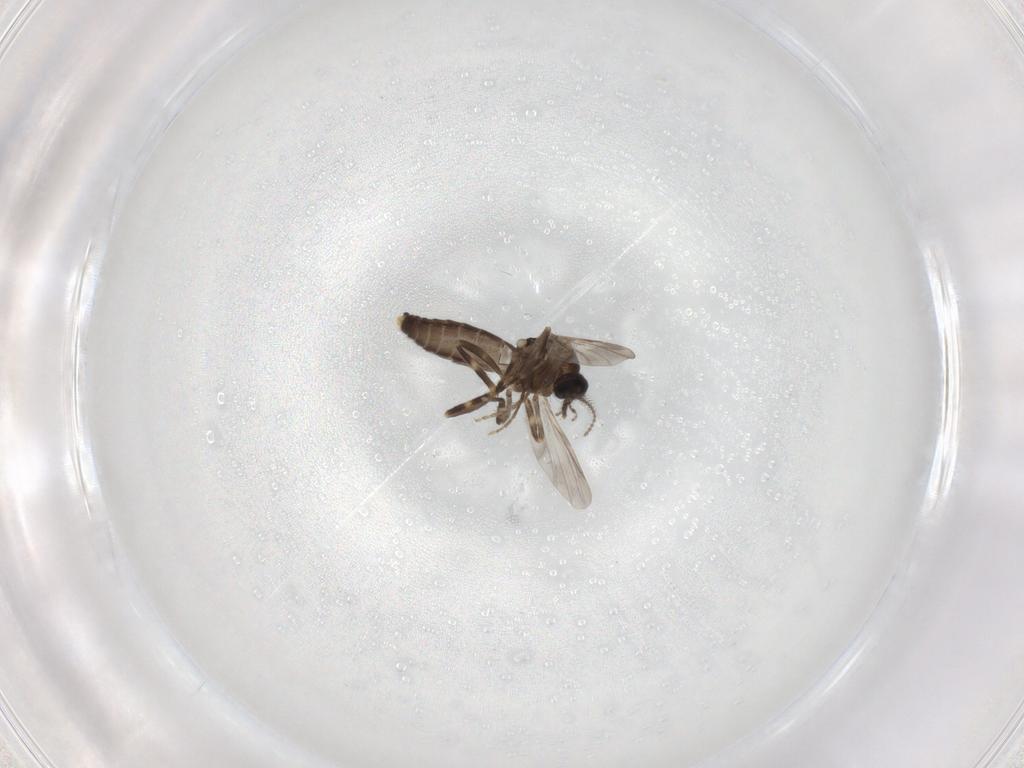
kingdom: Animalia
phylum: Arthropoda
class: Insecta
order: Diptera
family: Ceratopogonidae
